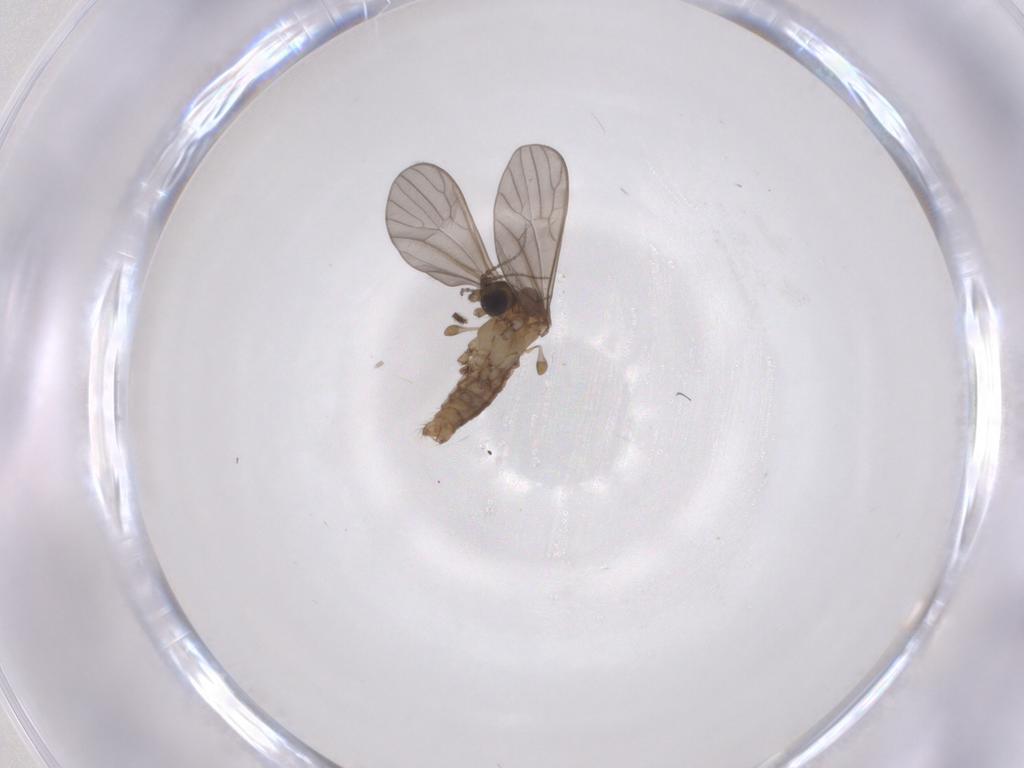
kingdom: Animalia
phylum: Arthropoda
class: Insecta
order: Diptera
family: Limoniidae
